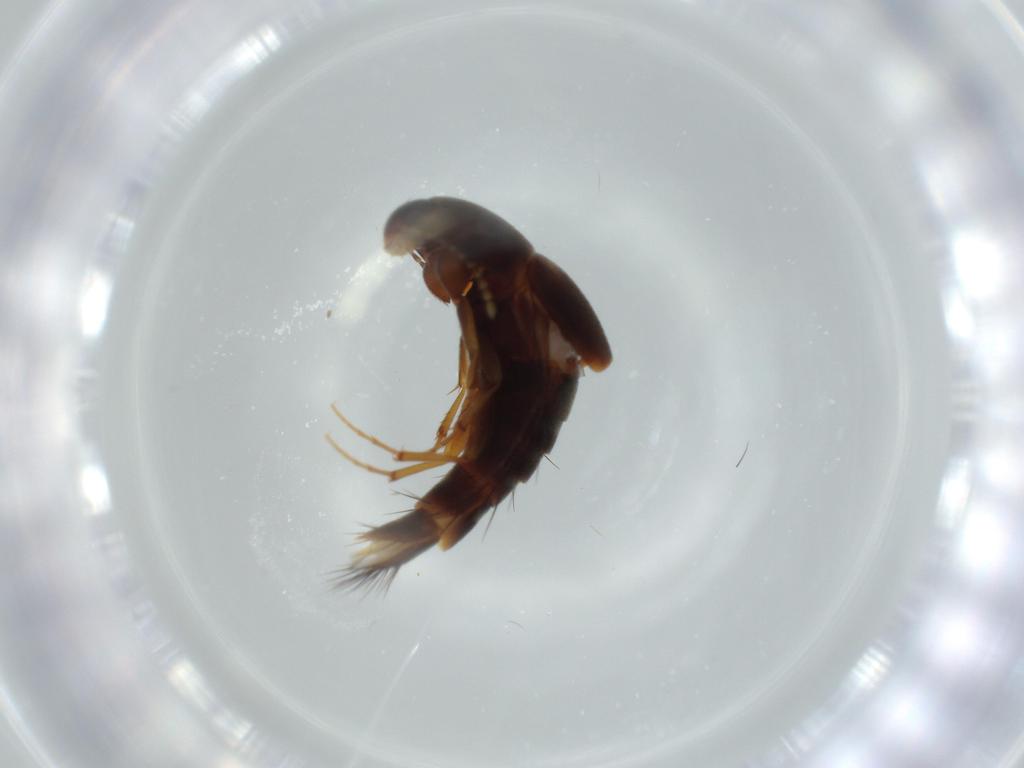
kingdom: Animalia
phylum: Arthropoda
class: Insecta
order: Coleoptera
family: Staphylinidae
